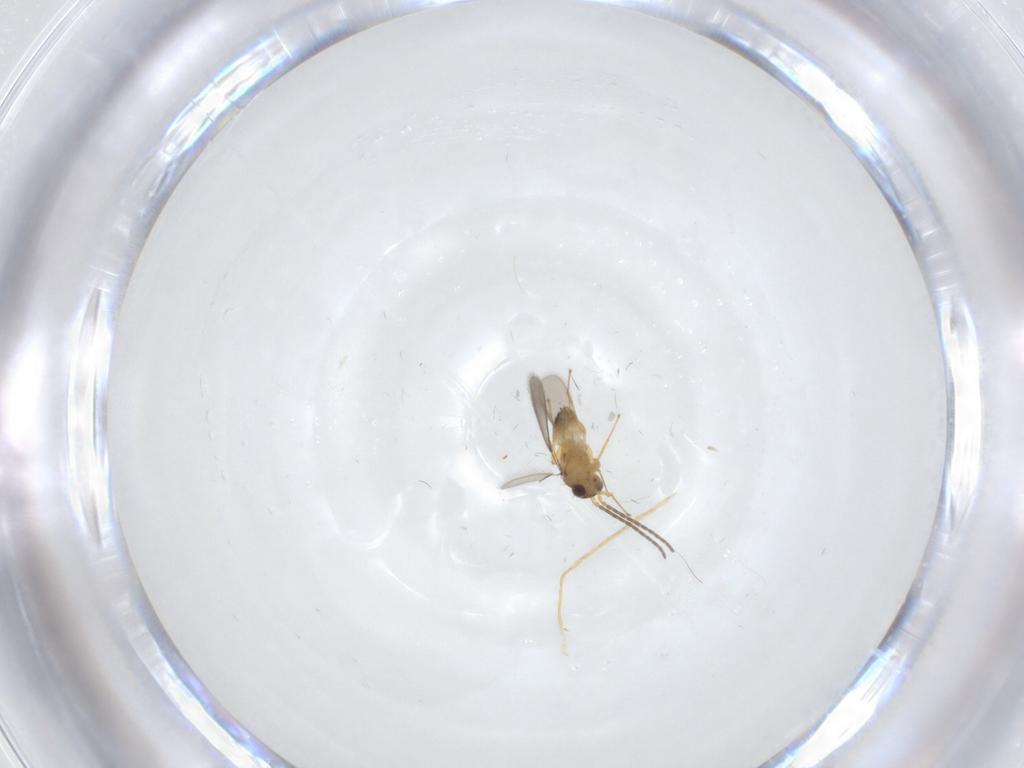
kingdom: Animalia
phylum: Arthropoda
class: Insecta
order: Hymenoptera
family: Mymaridae
